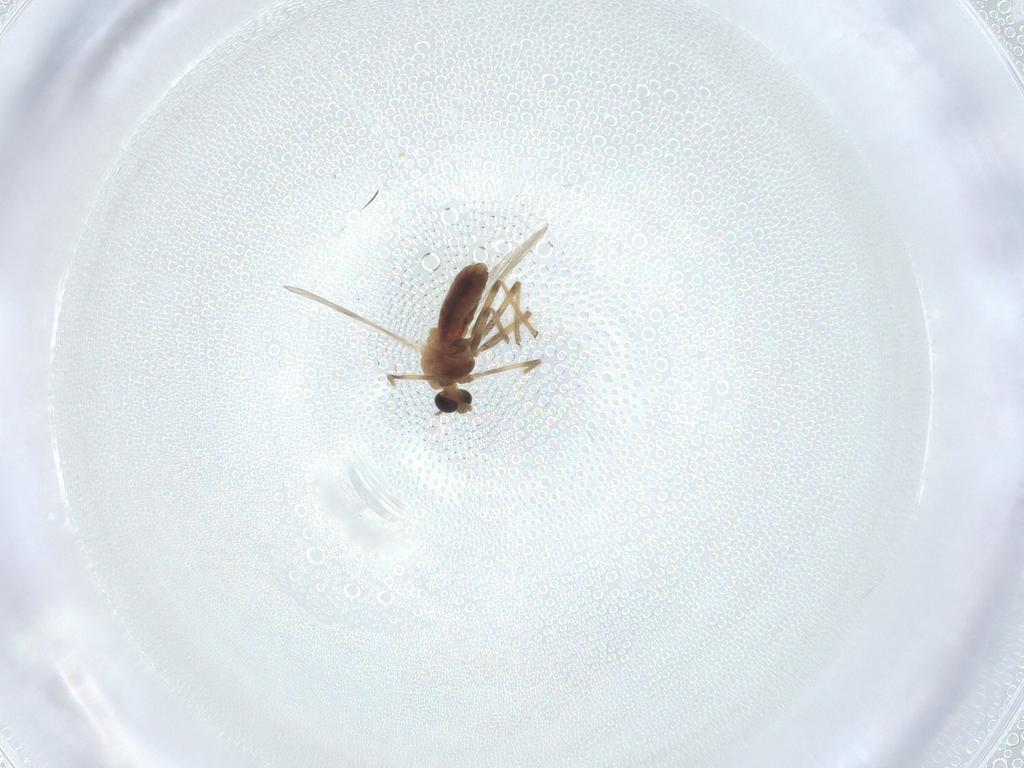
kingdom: Animalia
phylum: Arthropoda
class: Insecta
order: Diptera
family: Chironomidae
